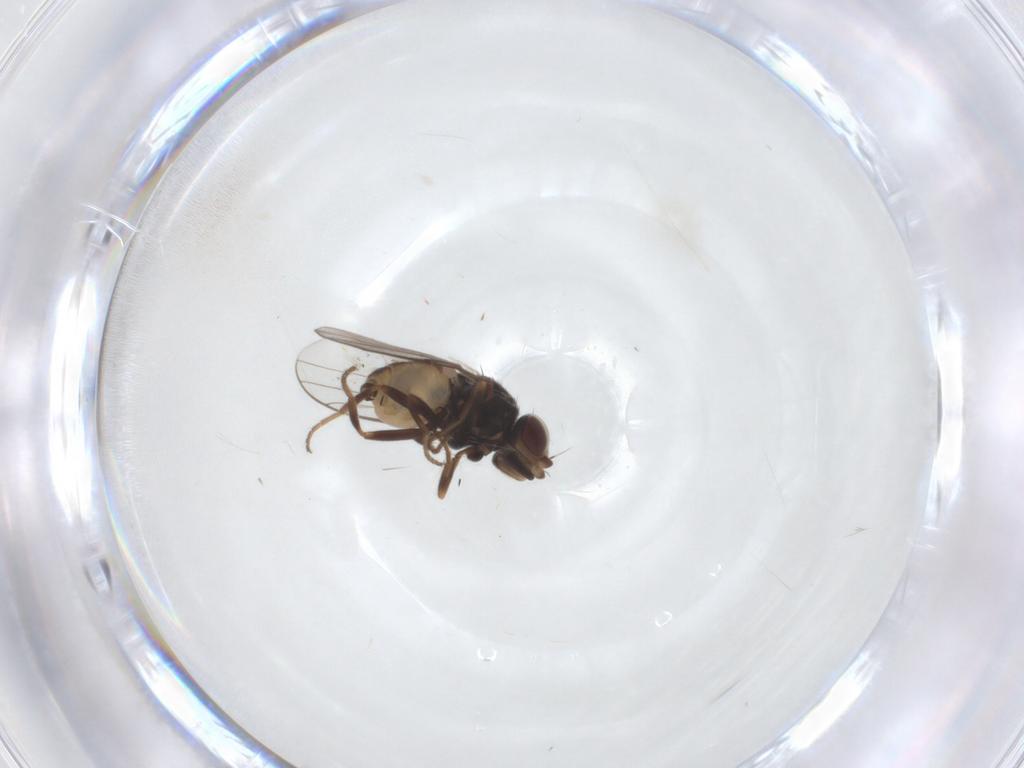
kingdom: Animalia
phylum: Arthropoda
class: Insecta
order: Diptera
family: Chloropidae
